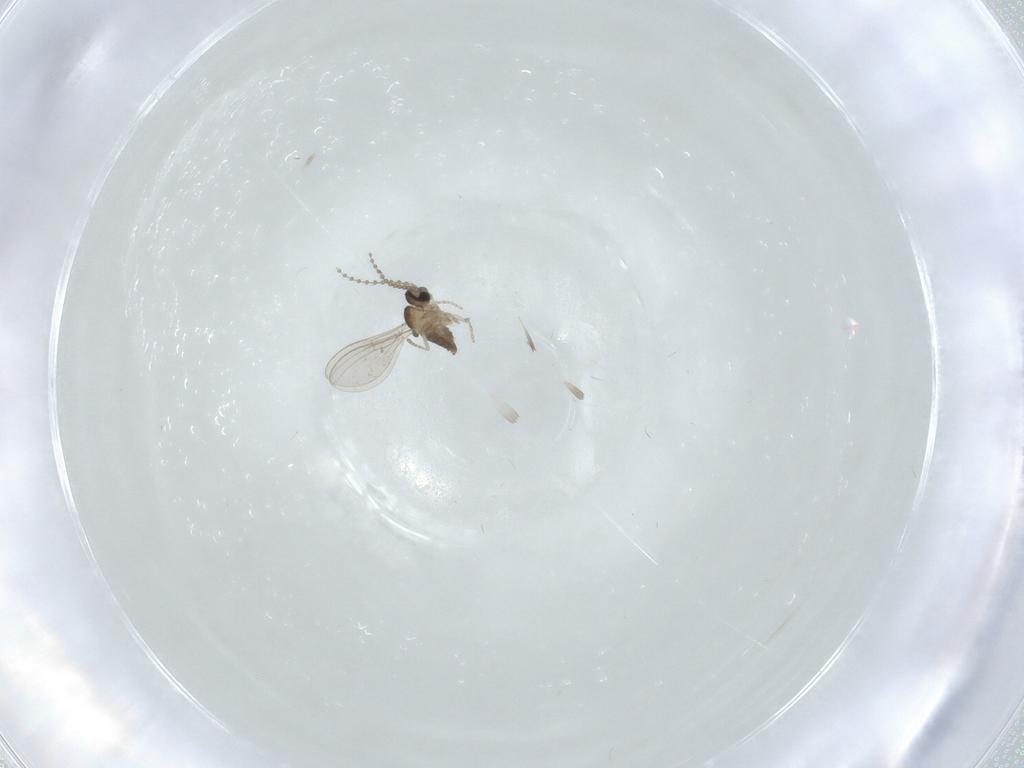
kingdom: Animalia
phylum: Arthropoda
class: Insecta
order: Diptera
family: Cecidomyiidae
